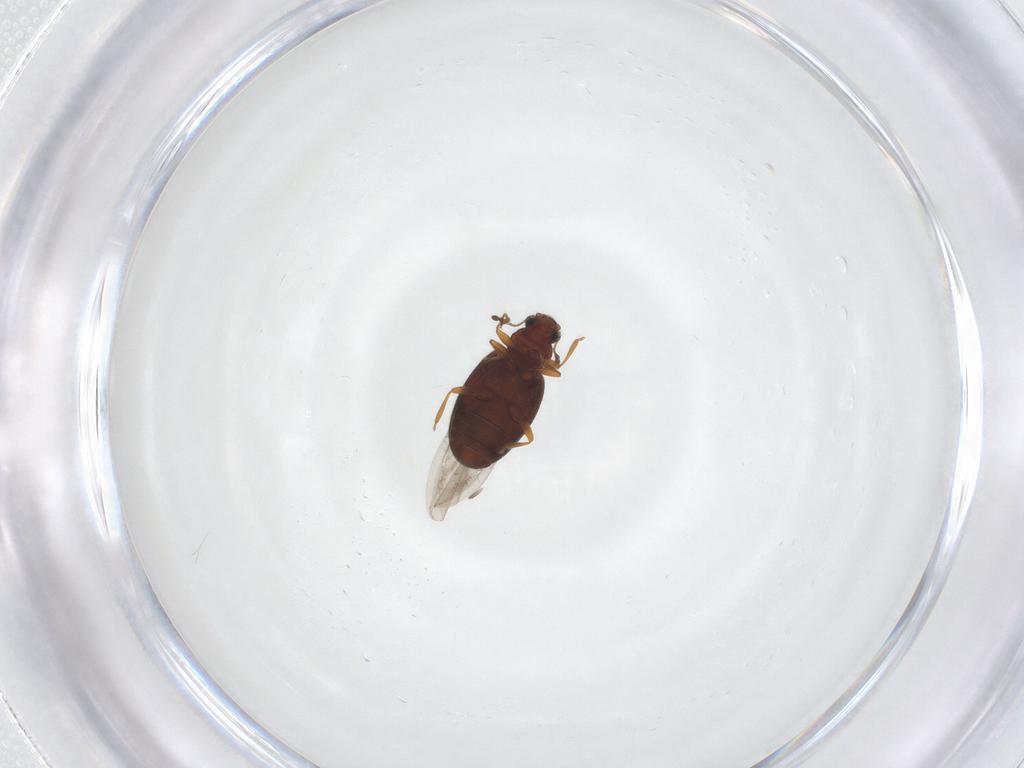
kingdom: Animalia
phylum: Arthropoda
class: Insecta
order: Coleoptera
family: Latridiidae
